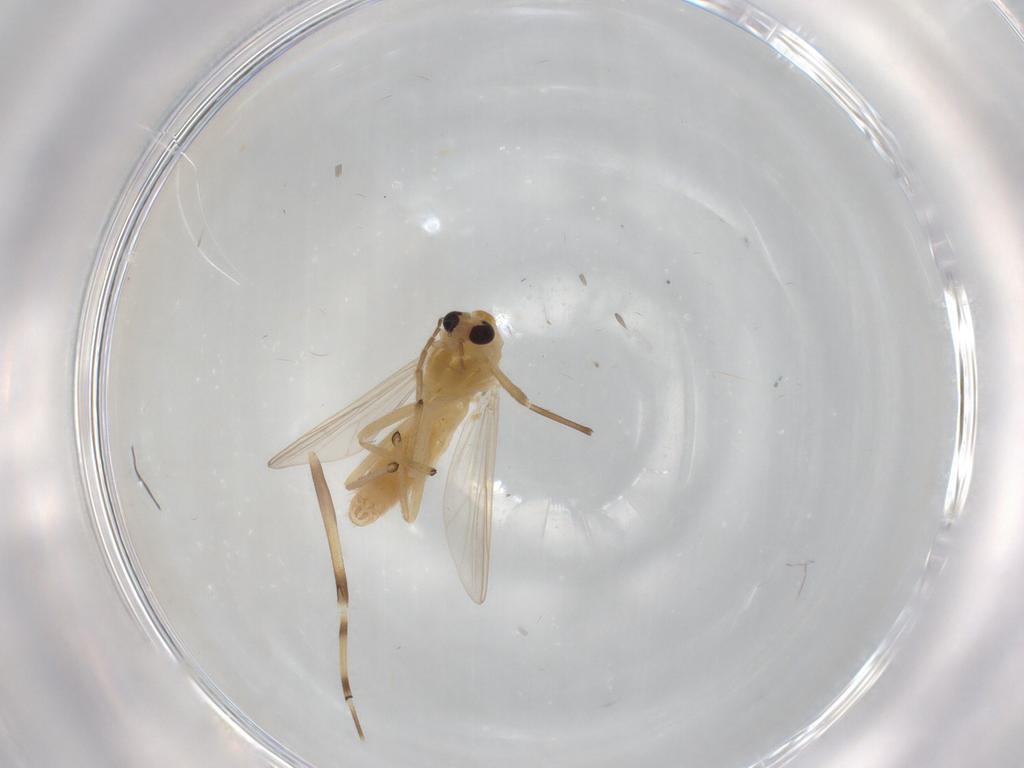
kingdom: Animalia
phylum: Arthropoda
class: Insecta
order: Diptera
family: Chironomidae
